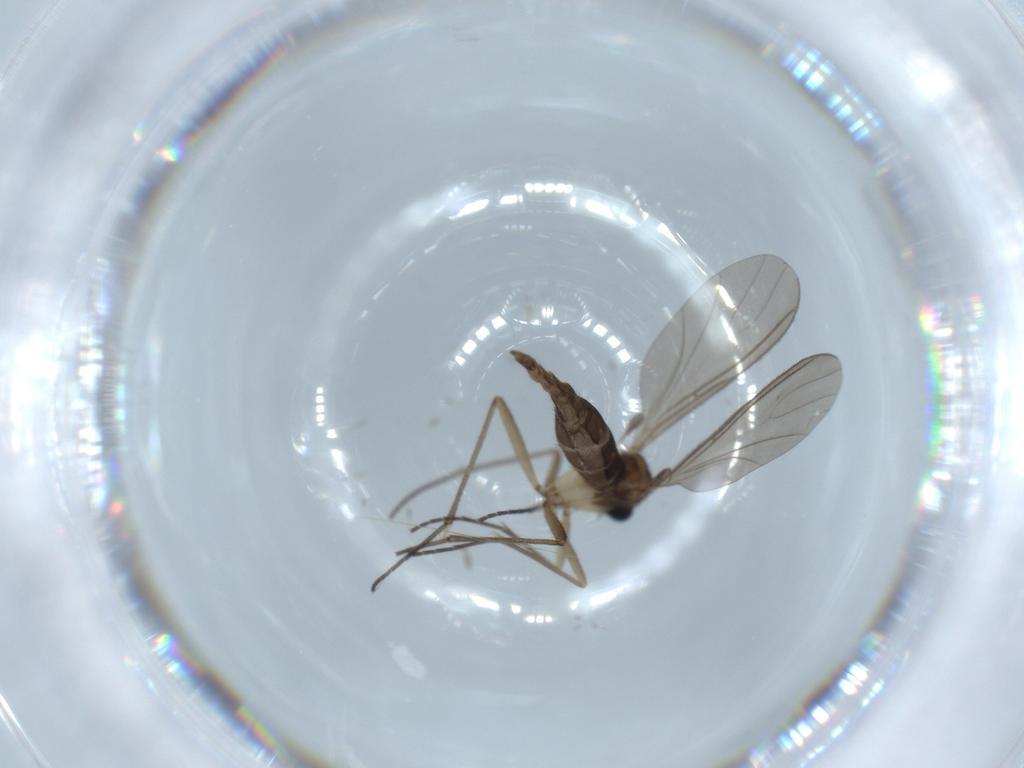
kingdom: Animalia
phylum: Arthropoda
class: Insecta
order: Diptera
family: Sciaridae
